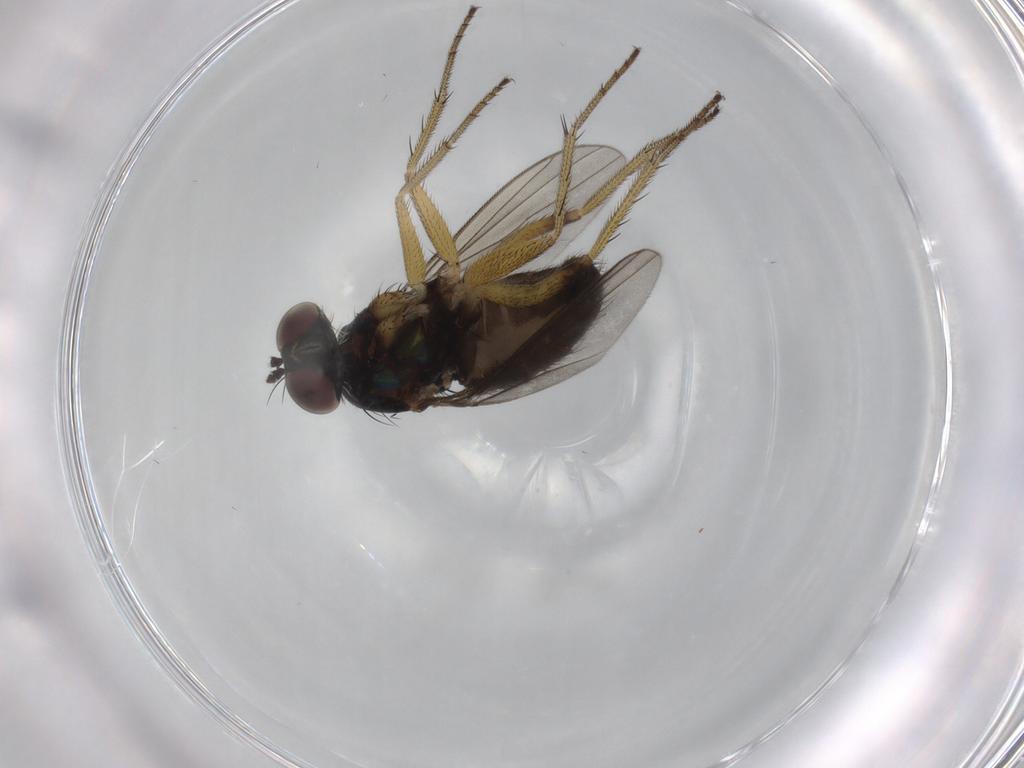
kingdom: Animalia
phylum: Arthropoda
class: Insecta
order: Diptera
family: Dolichopodidae
